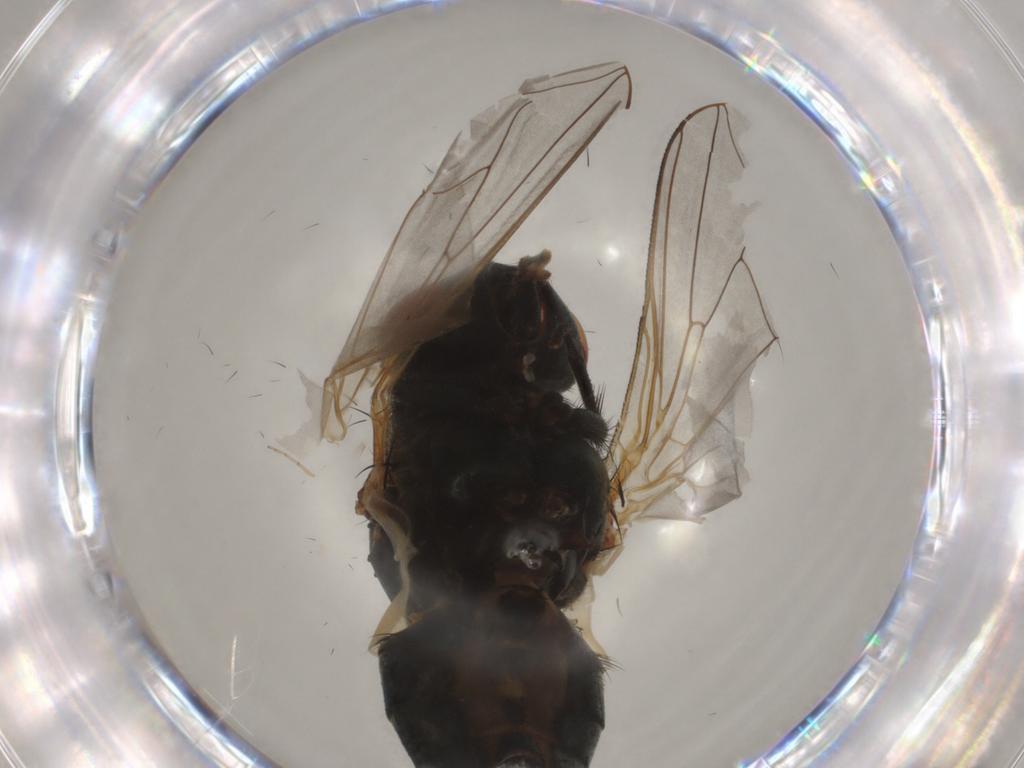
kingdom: Animalia
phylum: Arthropoda
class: Insecta
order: Diptera
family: Muscidae
